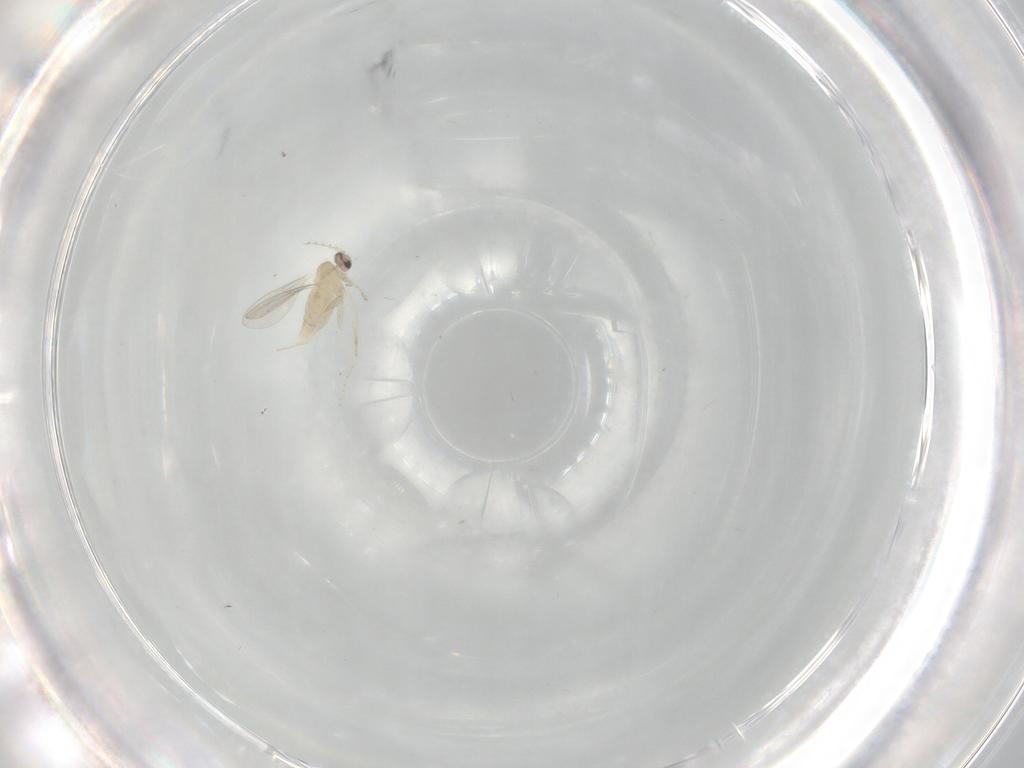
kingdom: Animalia
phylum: Arthropoda
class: Insecta
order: Diptera
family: Cecidomyiidae
